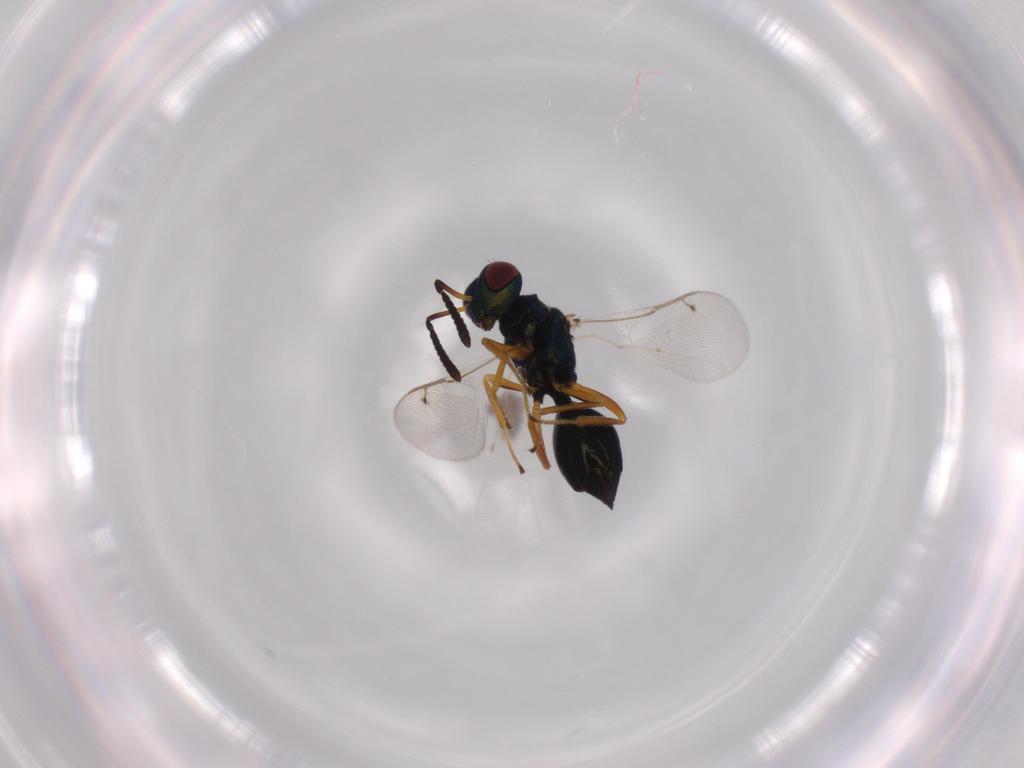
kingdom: Animalia
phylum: Arthropoda
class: Insecta
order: Hymenoptera
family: Pteromalidae
